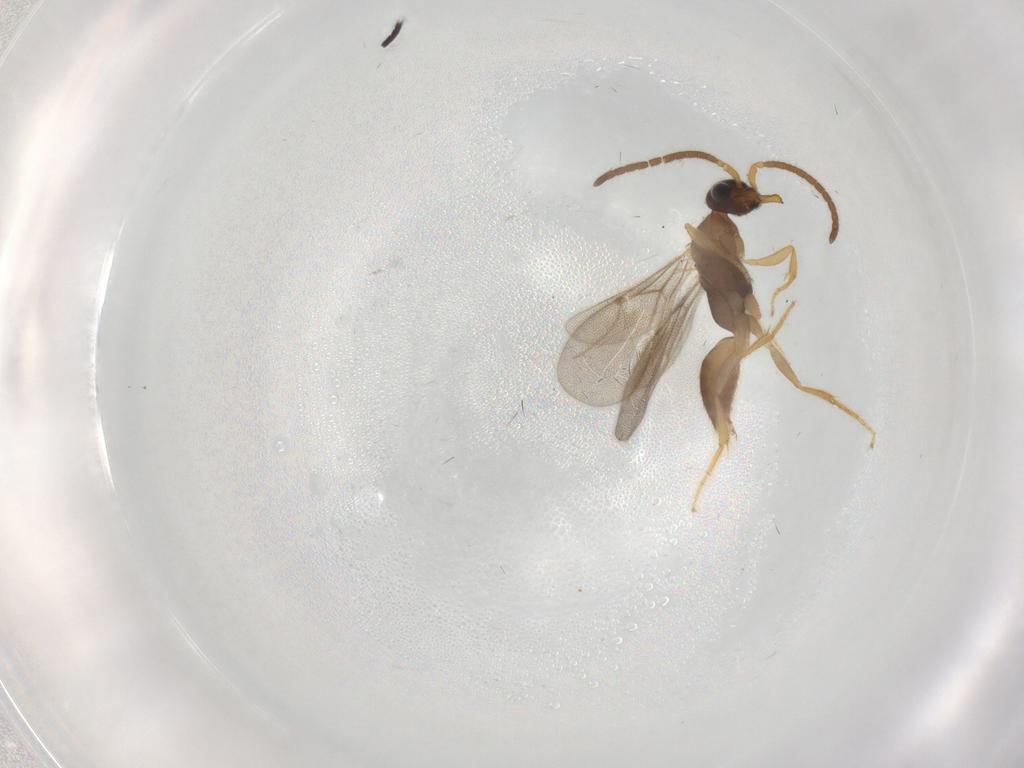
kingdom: Animalia
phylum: Arthropoda
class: Insecta
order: Hymenoptera
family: Bethylidae
